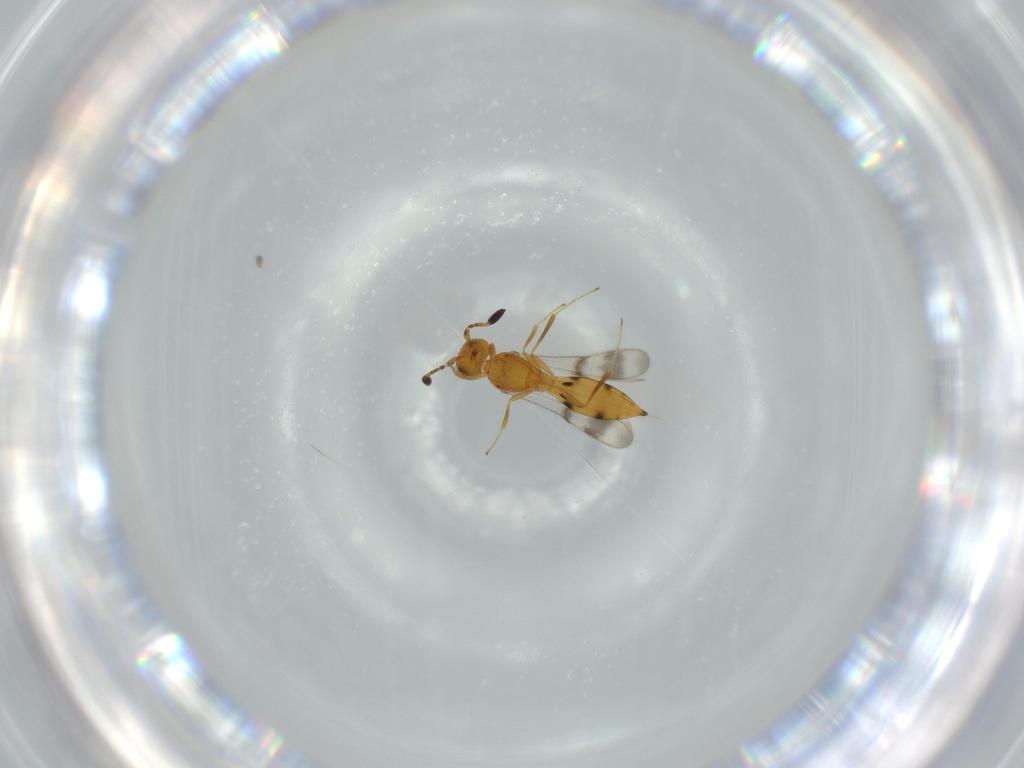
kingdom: Animalia
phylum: Arthropoda
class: Insecta
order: Hymenoptera
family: Scelionidae
